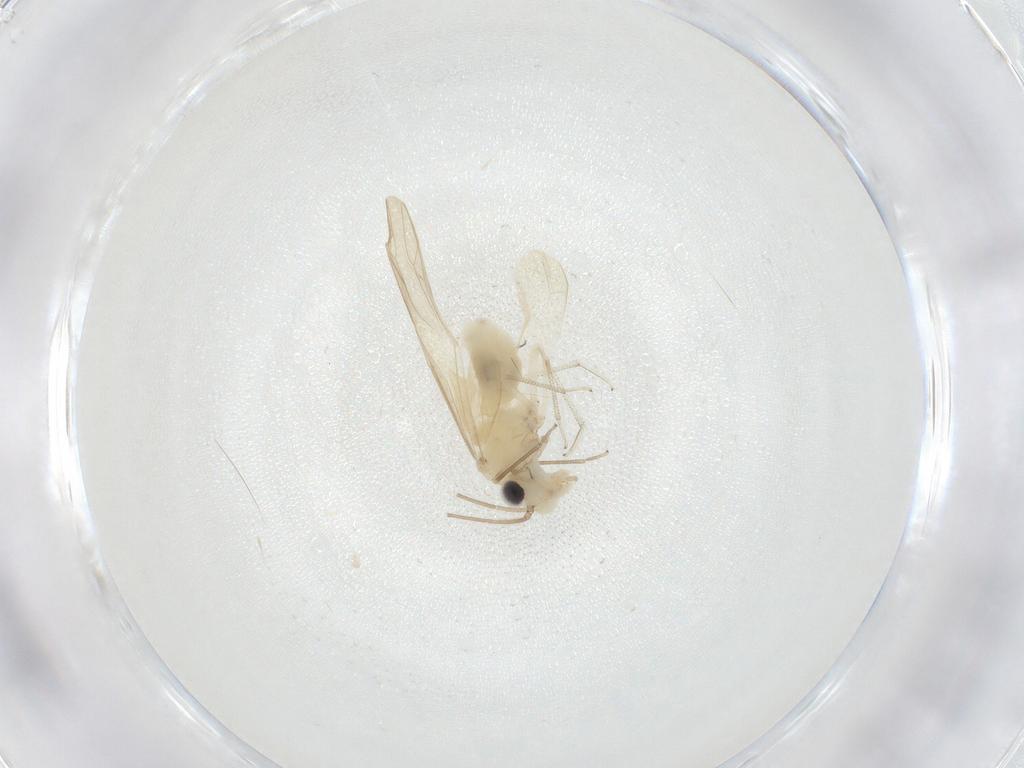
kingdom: Animalia
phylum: Arthropoda
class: Insecta
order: Psocodea
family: Caeciliusidae
